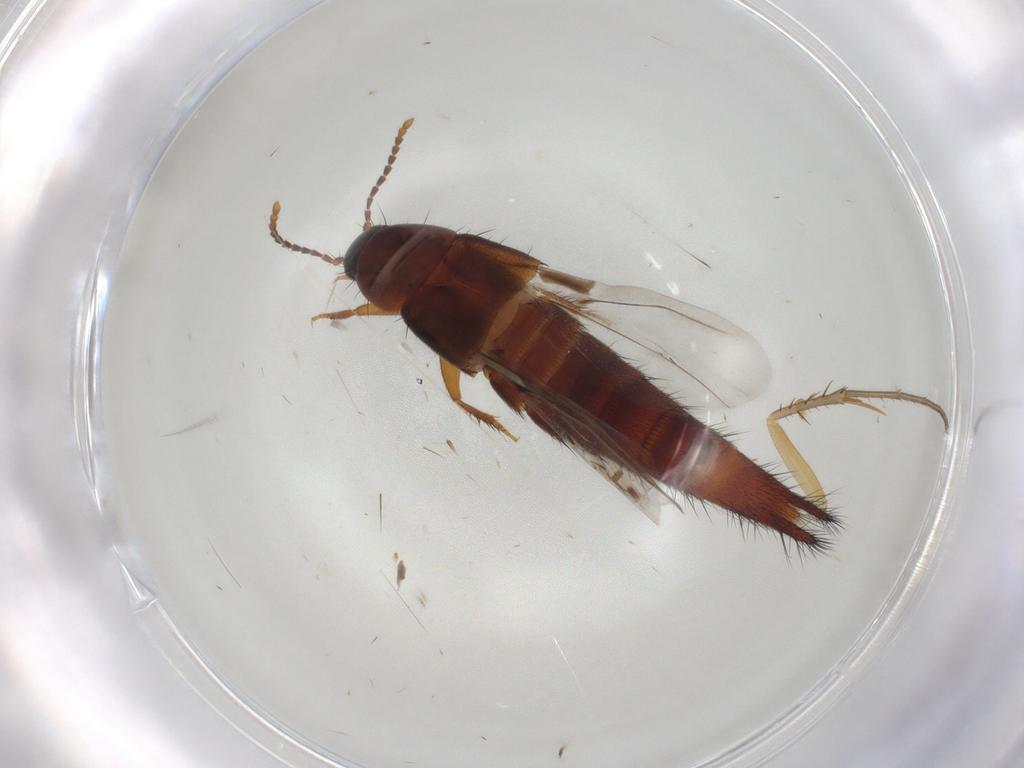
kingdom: Animalia
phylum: Arthropoda
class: Insecta
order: Coleoptera
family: Staphylinidae
